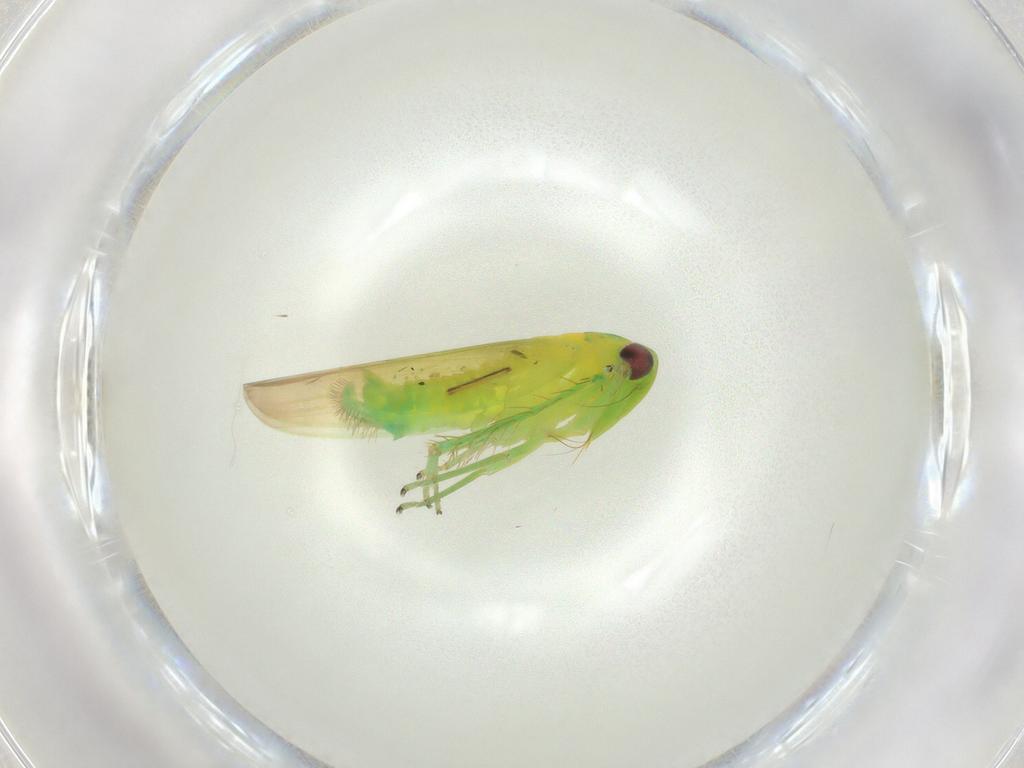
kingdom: Animalia
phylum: Arthropoda
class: Insecta
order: Hemiptera
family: Cicadellidae
